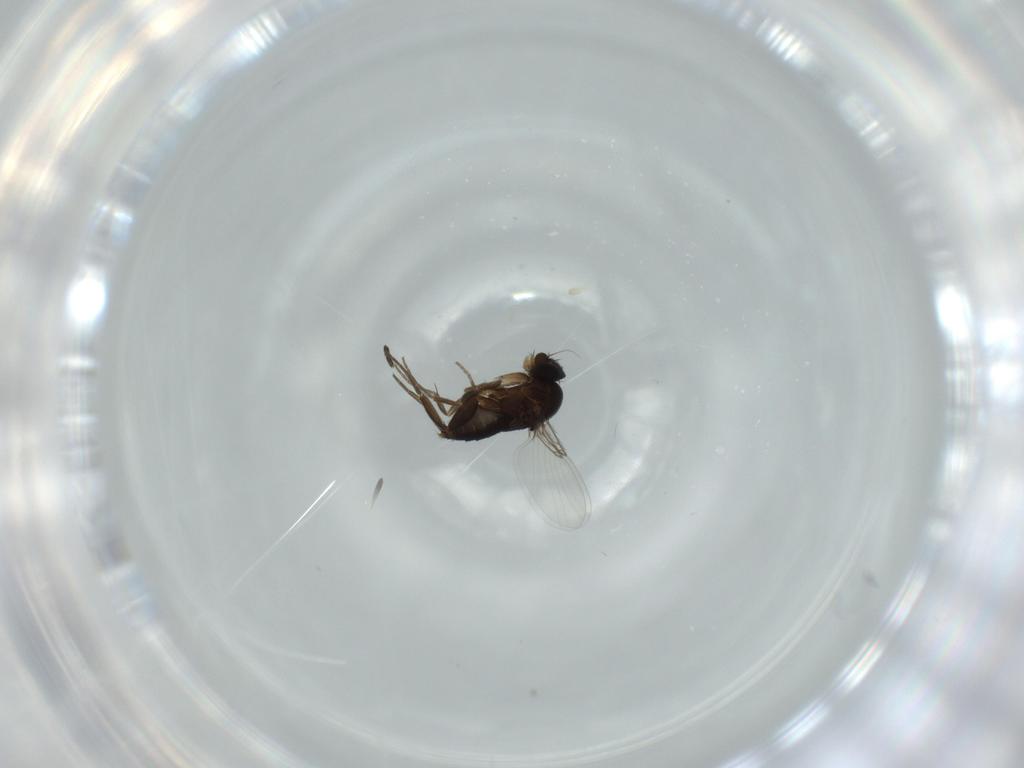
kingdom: Animalia
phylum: Arthropoda
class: Insecta
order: Diptera
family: Phoridae
